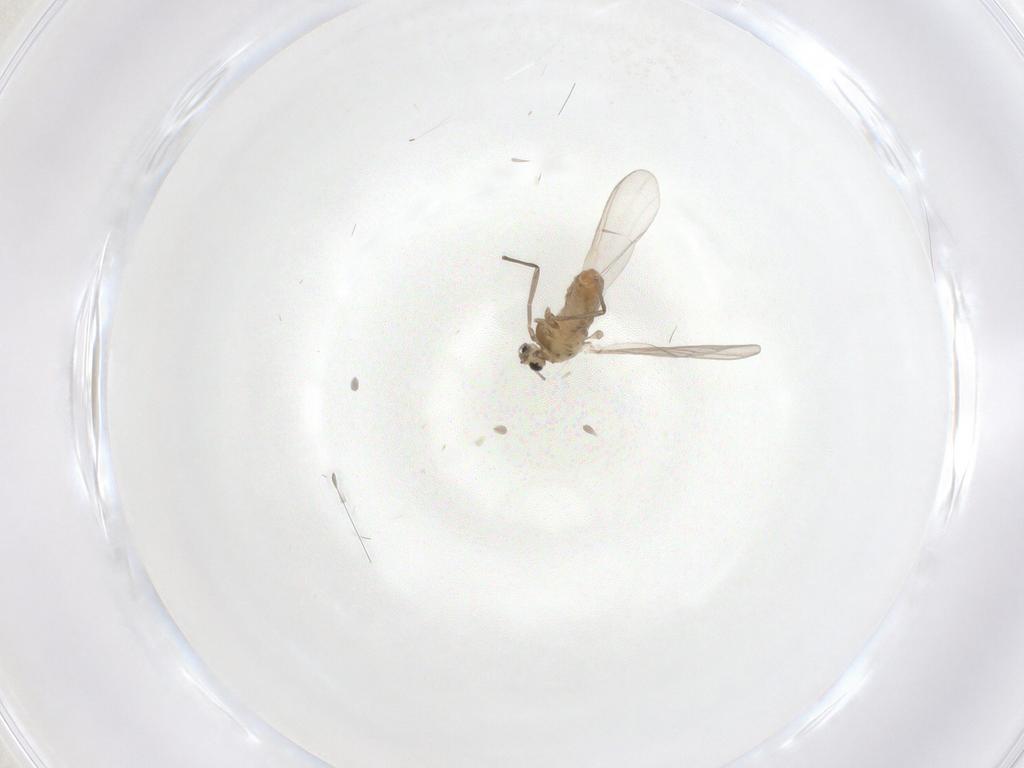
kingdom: Animalia
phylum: Arthropoda
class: Insecta
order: Diptera
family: Chironomidae
